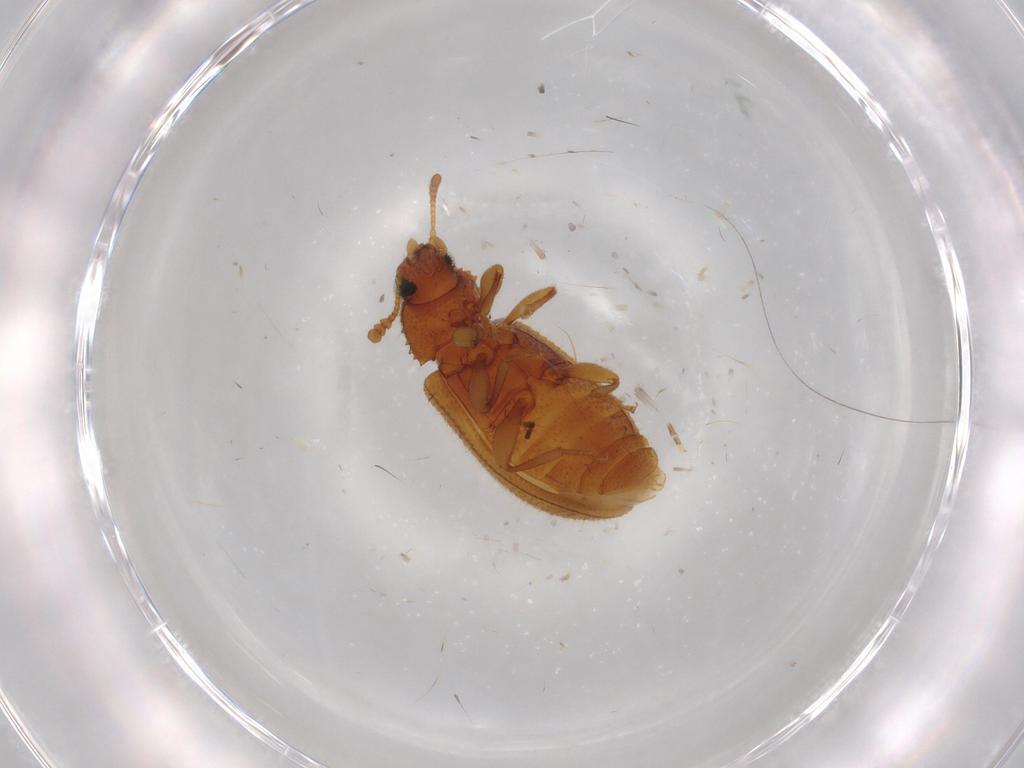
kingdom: Animalia
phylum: Arthropoda
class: Insecta
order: Coleoptera
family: Tenebrionidae
